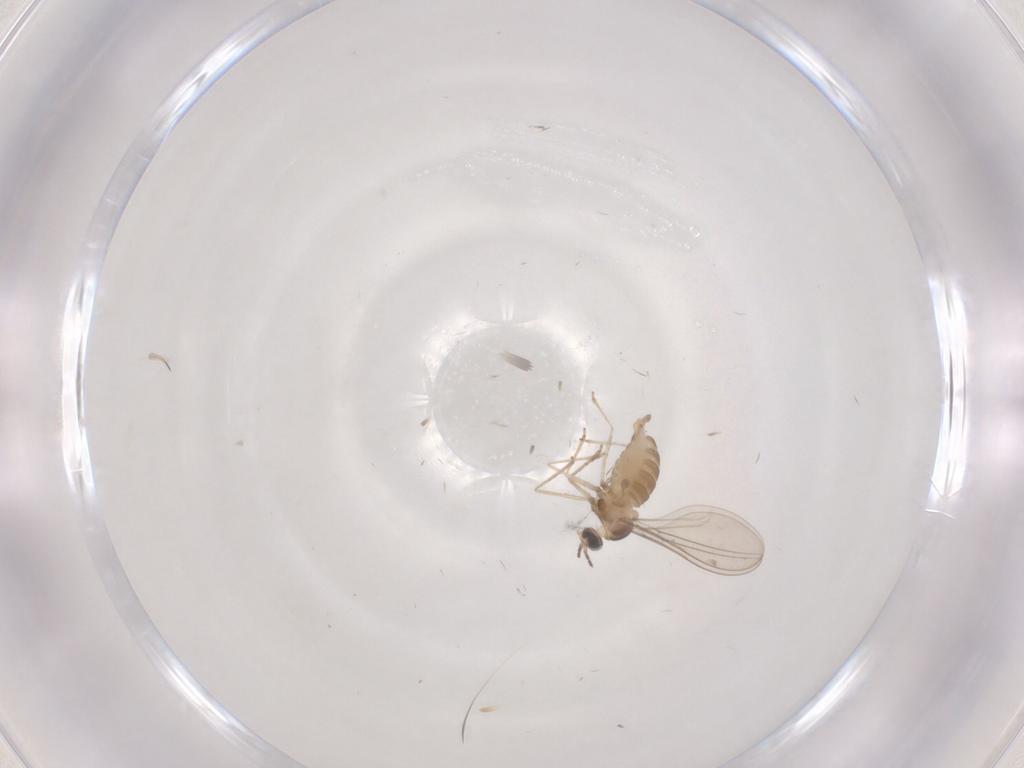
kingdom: Animalia
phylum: Arthropoda
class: Insecta
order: Diptera
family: Cecidomyiidae
